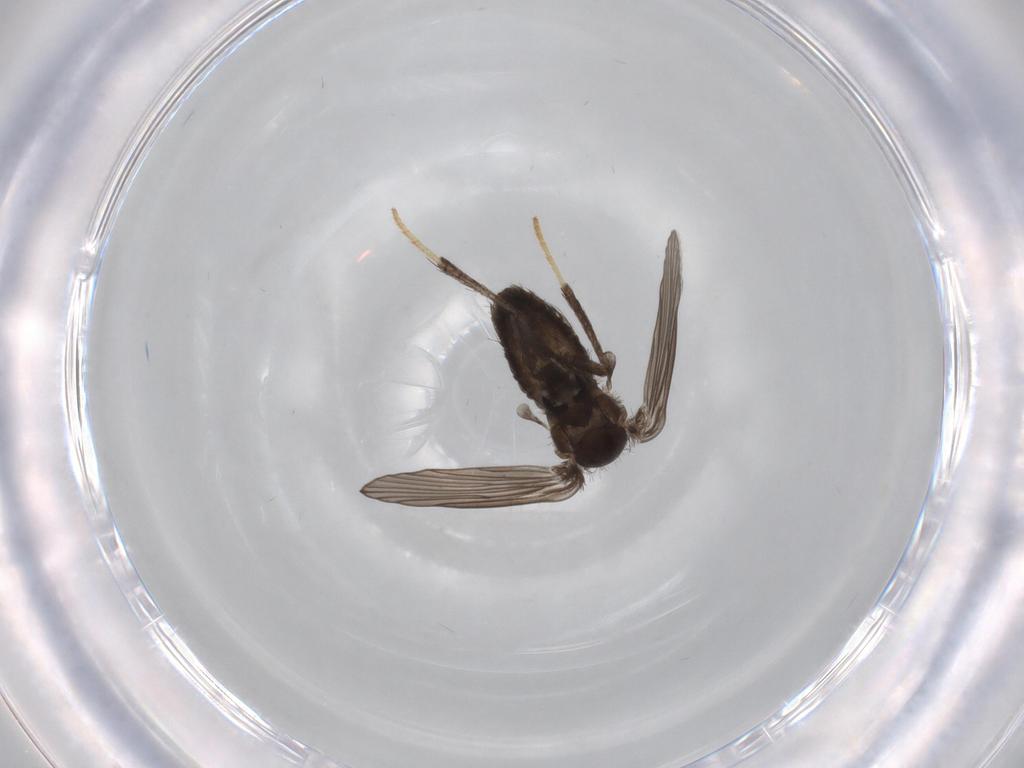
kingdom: Animalia
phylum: Arthropoda
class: Insecta
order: Diptera
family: Psychodidae
